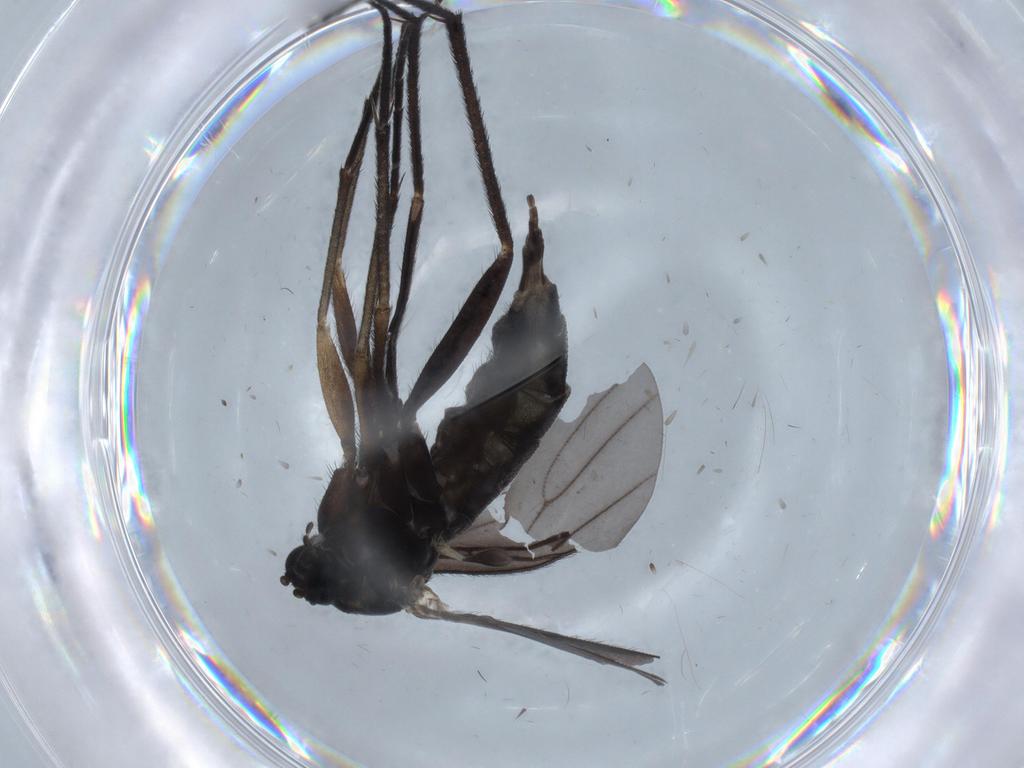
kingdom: Animalia
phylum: Arthropoda
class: Insecta
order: Diptera
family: Sciaridae
